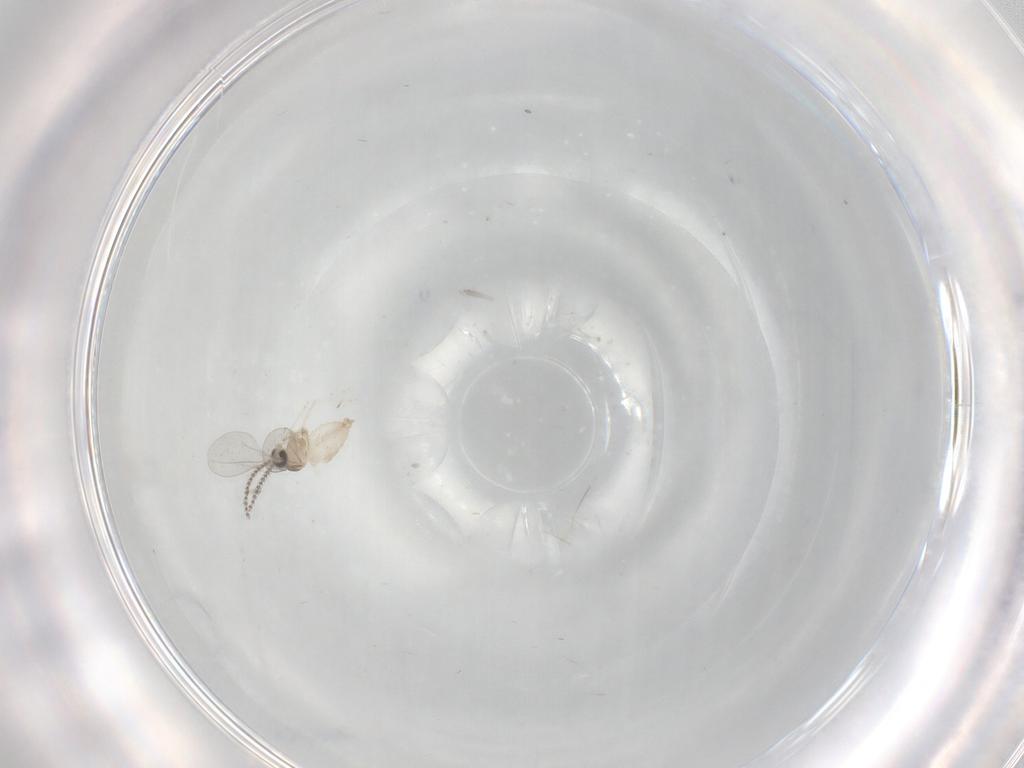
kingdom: Animalia
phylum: Arthropoda
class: Insecta
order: Diptera
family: Cecidomyiidae
